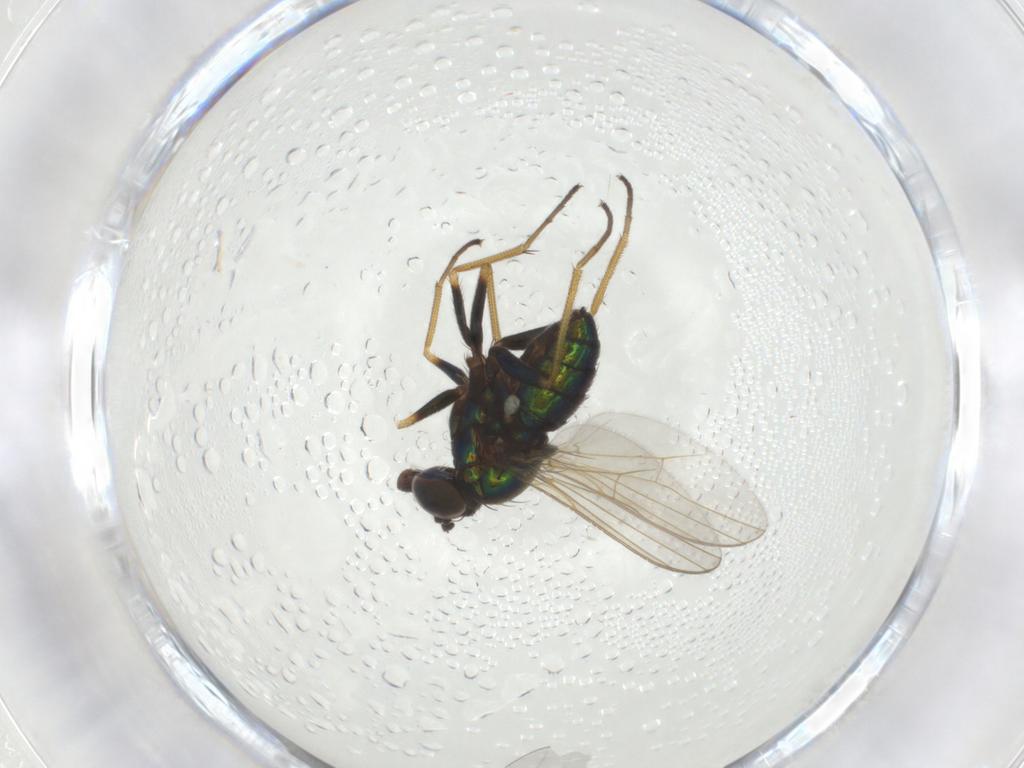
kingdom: Animalia
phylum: Arthropoda
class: Insecta
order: Diptera
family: Dolichopodidae
